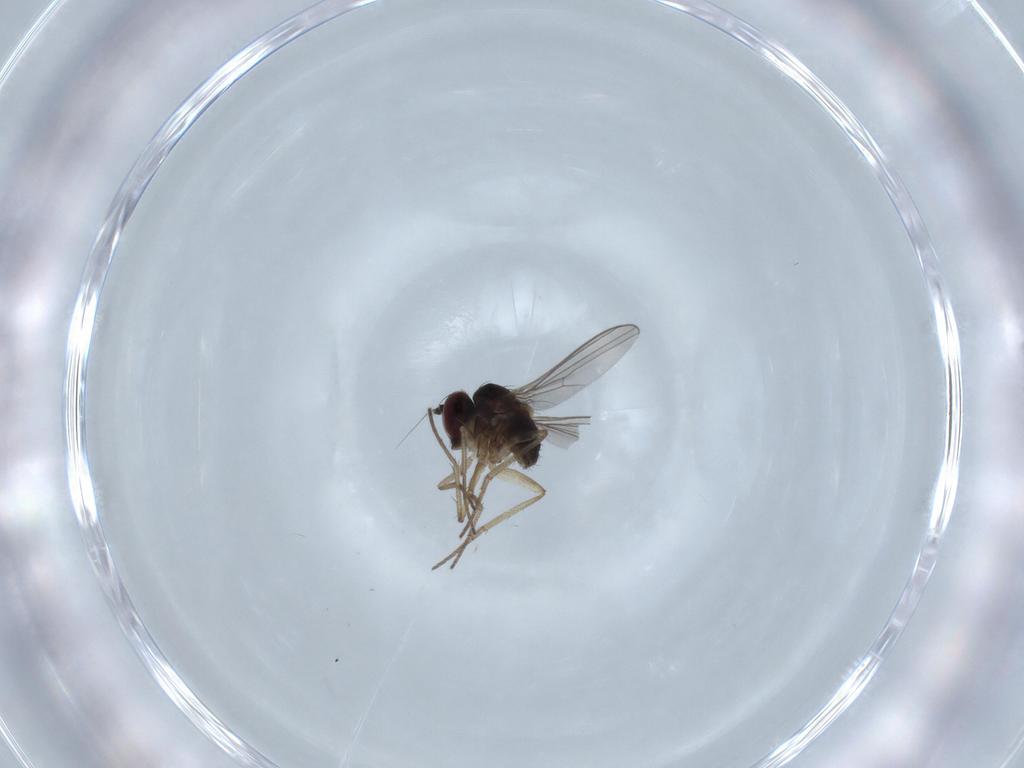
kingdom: Animalia
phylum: Arthropoda
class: Insecta
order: Diptera
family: Dolichopodidae
